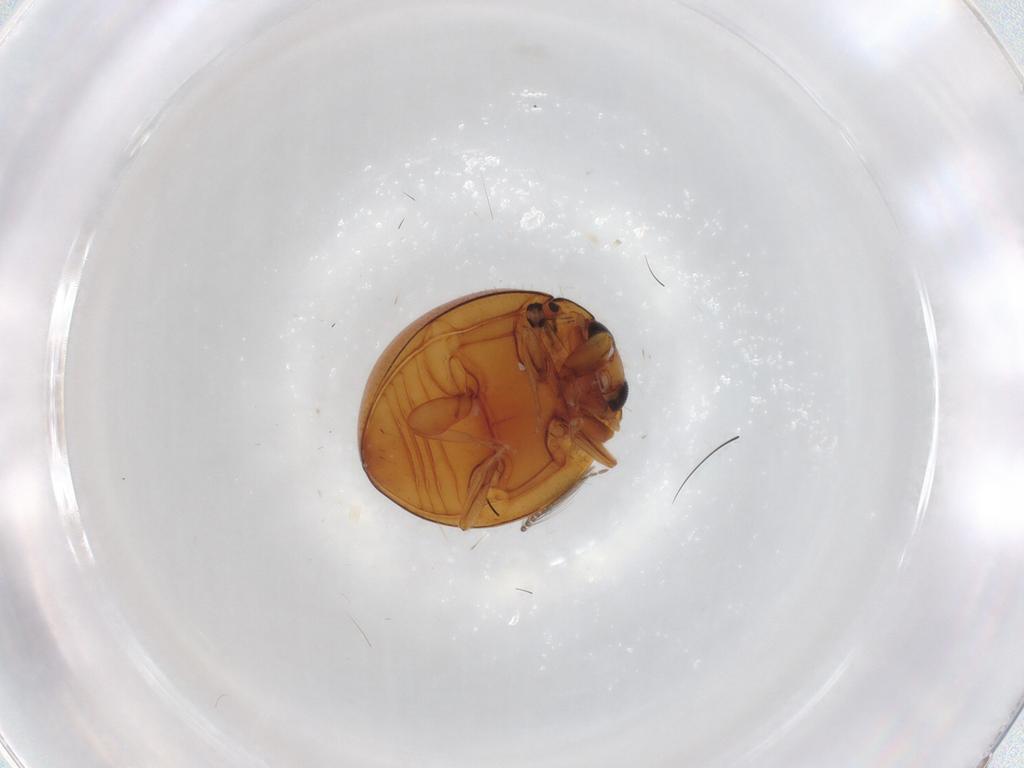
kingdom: Animalia
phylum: Arthropoda
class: Insecta
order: Coleoptera
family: Coccinellidae
